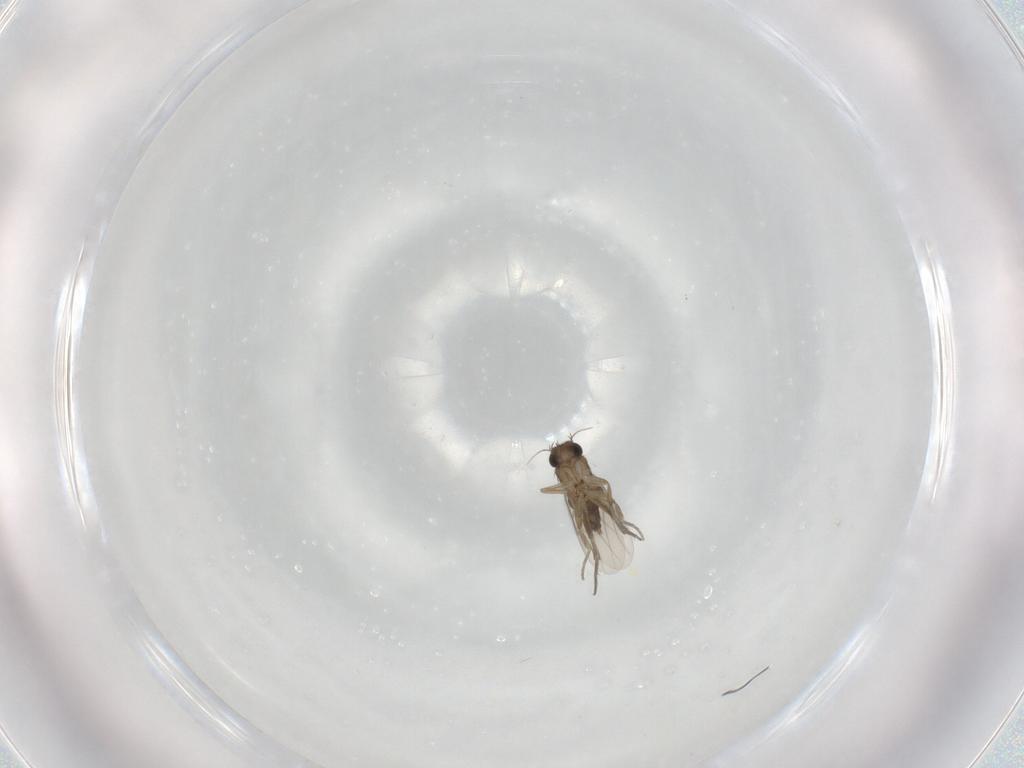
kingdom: Animalia
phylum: Arthropoda
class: Insecta
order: Diptera
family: Phoridae
